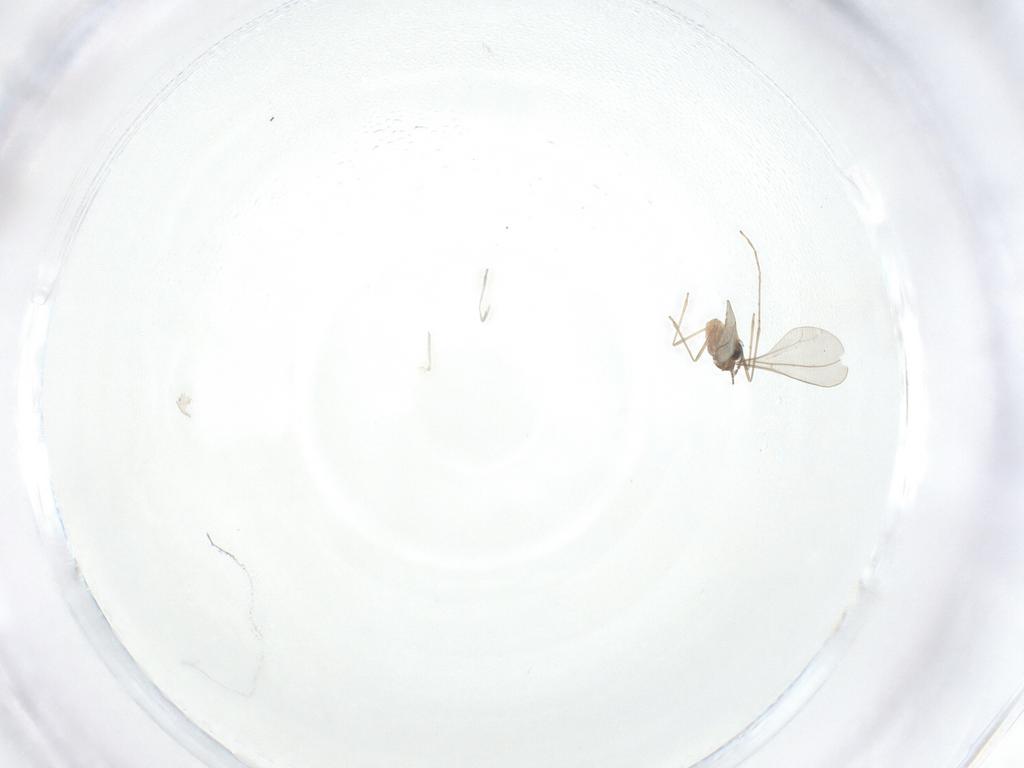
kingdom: Animalia
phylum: Arthropoda
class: Insecta
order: Diptera
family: Cecidomyiidae
